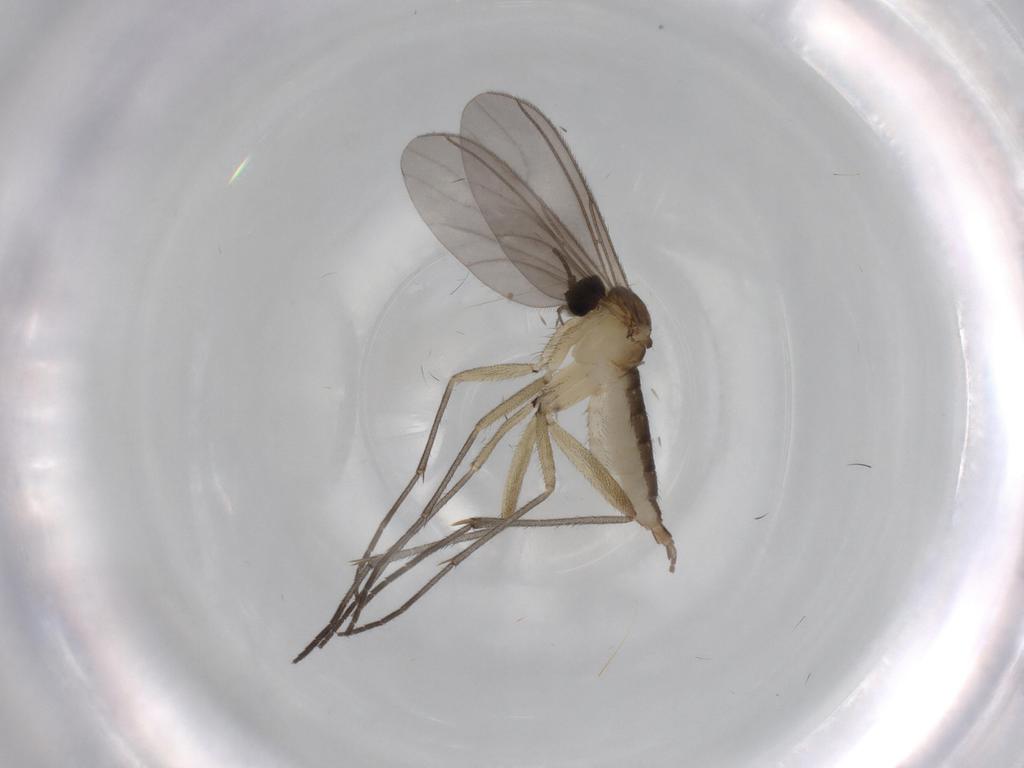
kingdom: Animalia
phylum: Arthropoda
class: Insecta
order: Diptera
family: Sciaridae
